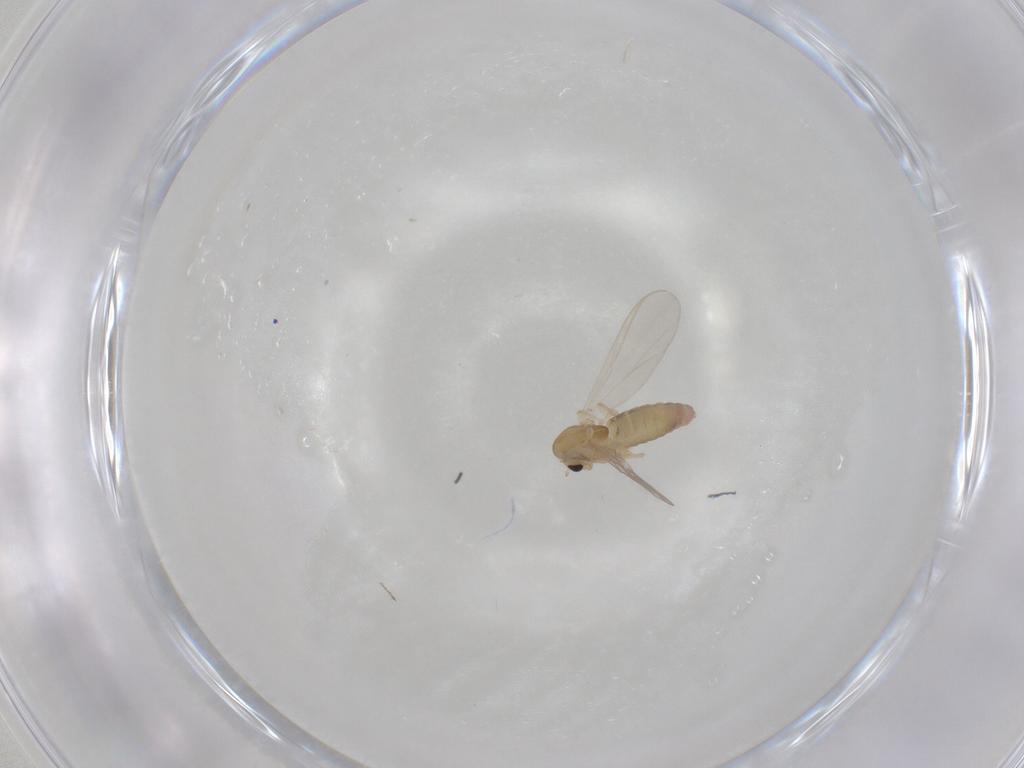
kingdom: Animalia
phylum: Arthropoda
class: Insecta
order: Diptera
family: Chironomidae
